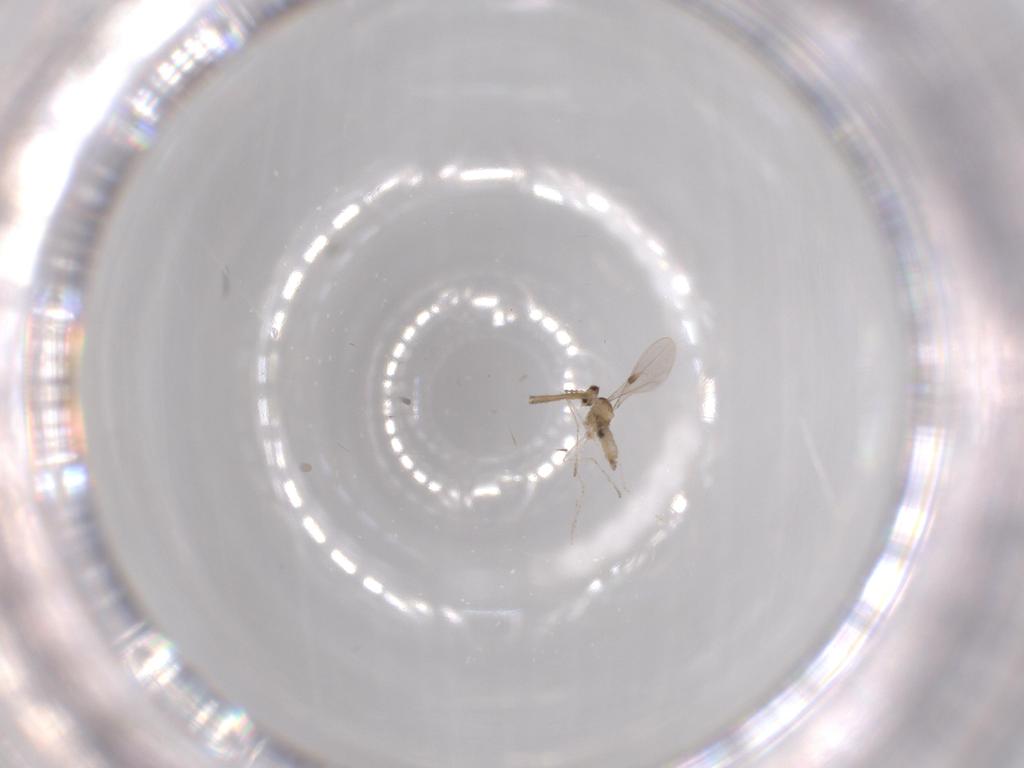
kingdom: Animalia
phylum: Arthropoda
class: Insecta
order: Diptera
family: Cecidomyiidae
